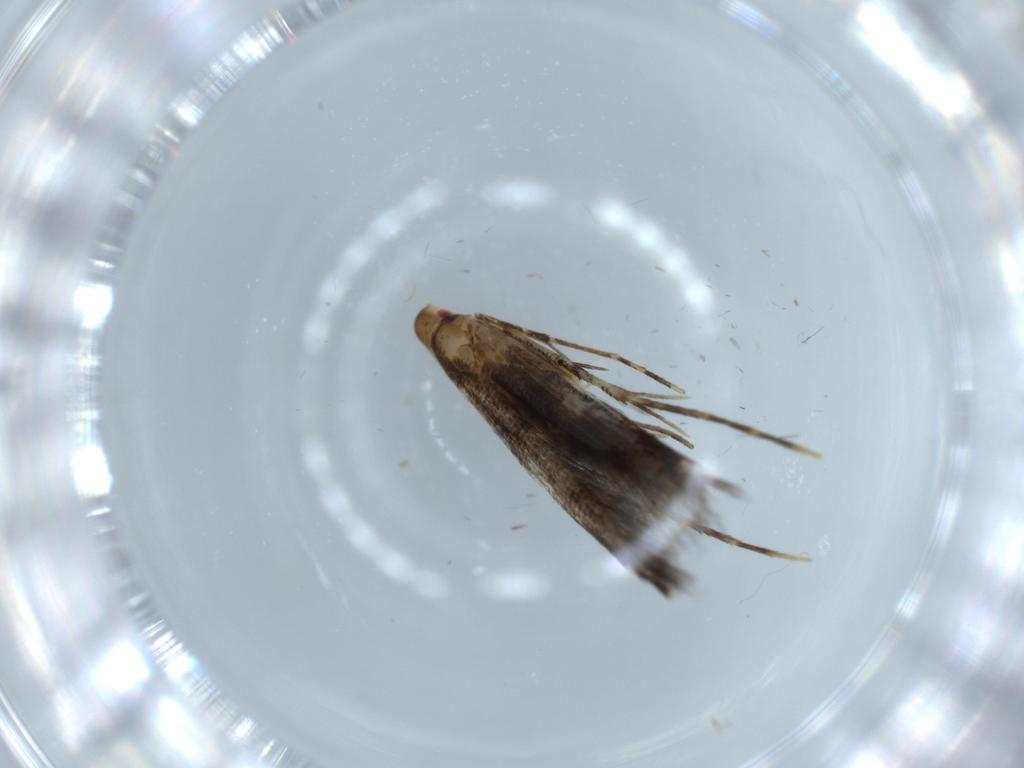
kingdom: Animalia
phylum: Arthropoda
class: Insecta
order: Lepidoptera
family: Cosmopterigidae
